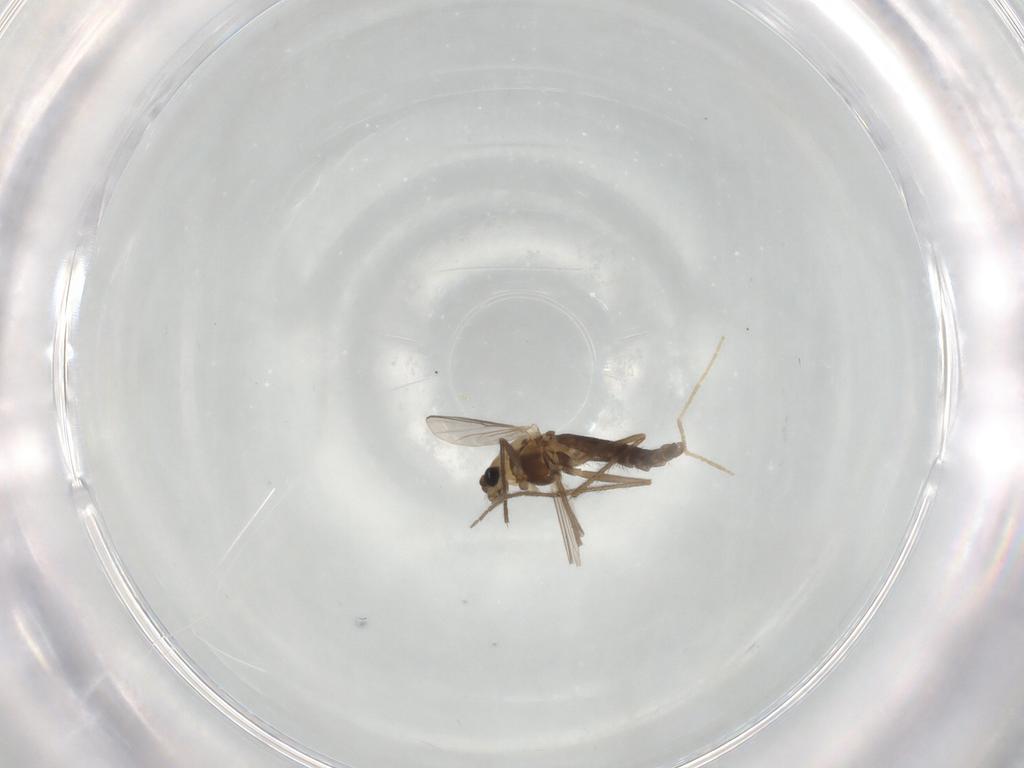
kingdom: Animalia
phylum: Arthropoda
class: Insecta
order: Diptera
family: Chironomidae
